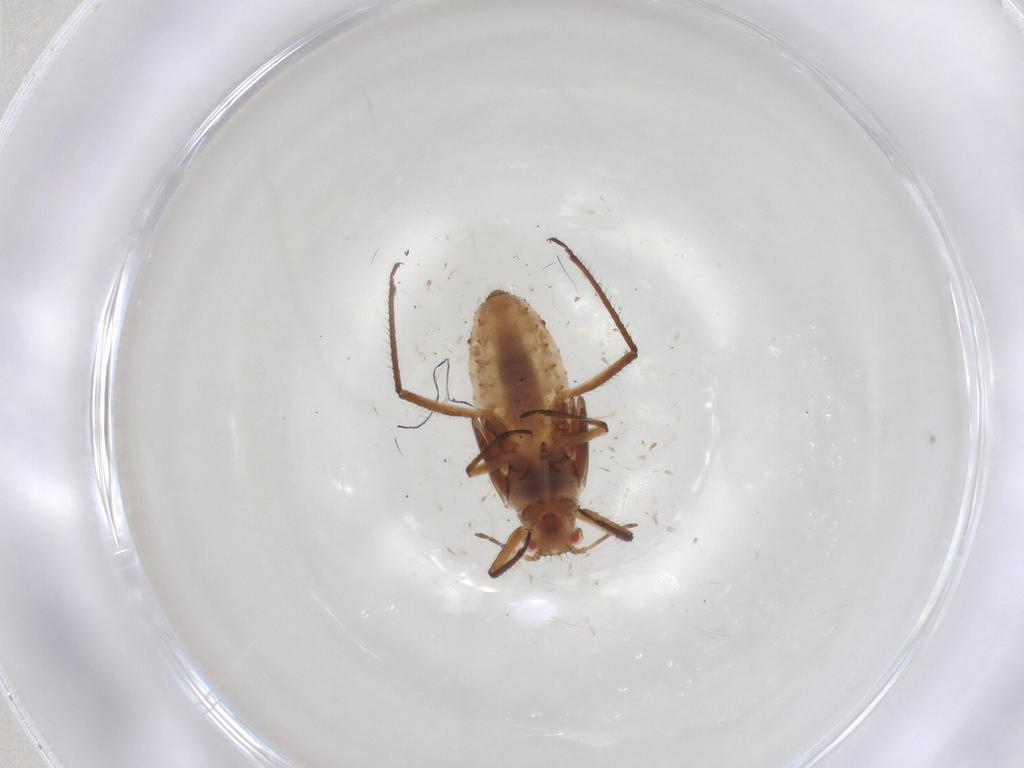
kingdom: Animalia
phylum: Arthropoda
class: Insecta
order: Hemiptera
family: Aphididae
